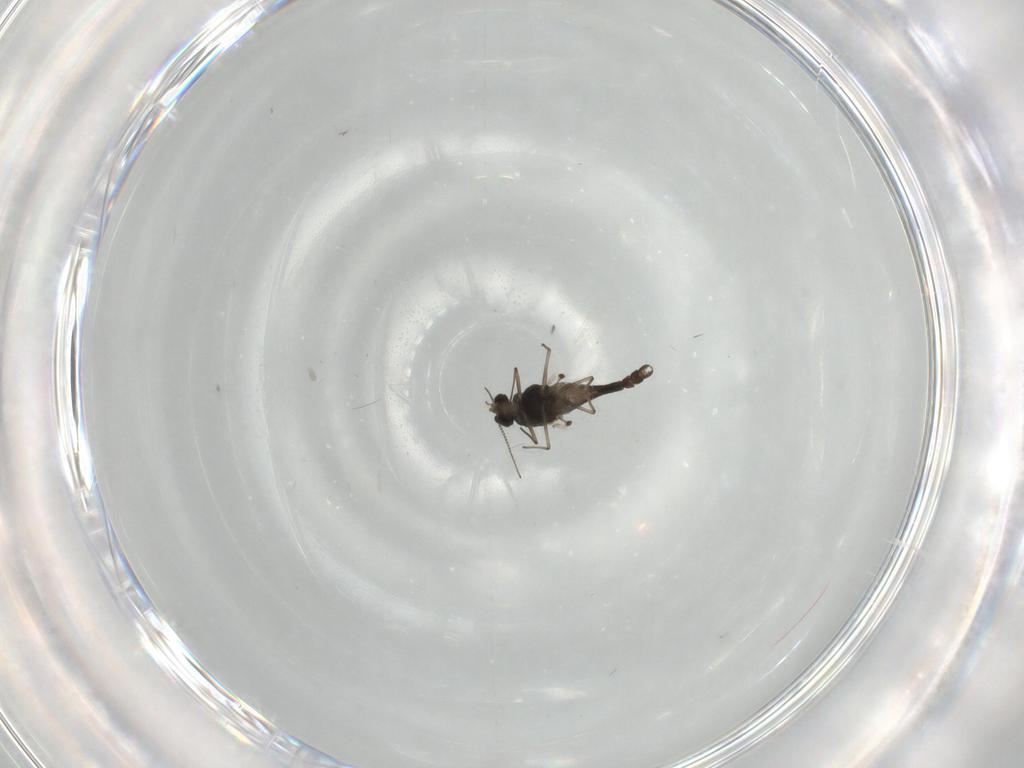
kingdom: Animalia
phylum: Arthropoda
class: Insecta
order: Diptera
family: Chironomidae
